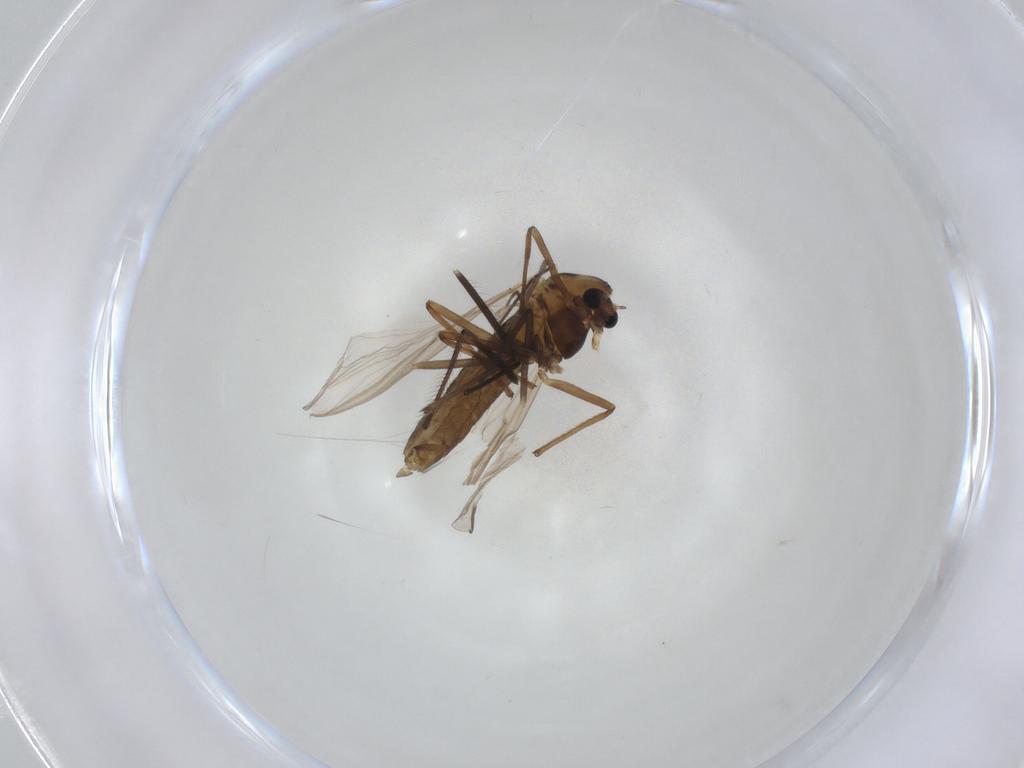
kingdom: Animalia
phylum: Arthropoda
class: Insecta
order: Diptera
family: Chironomidae
